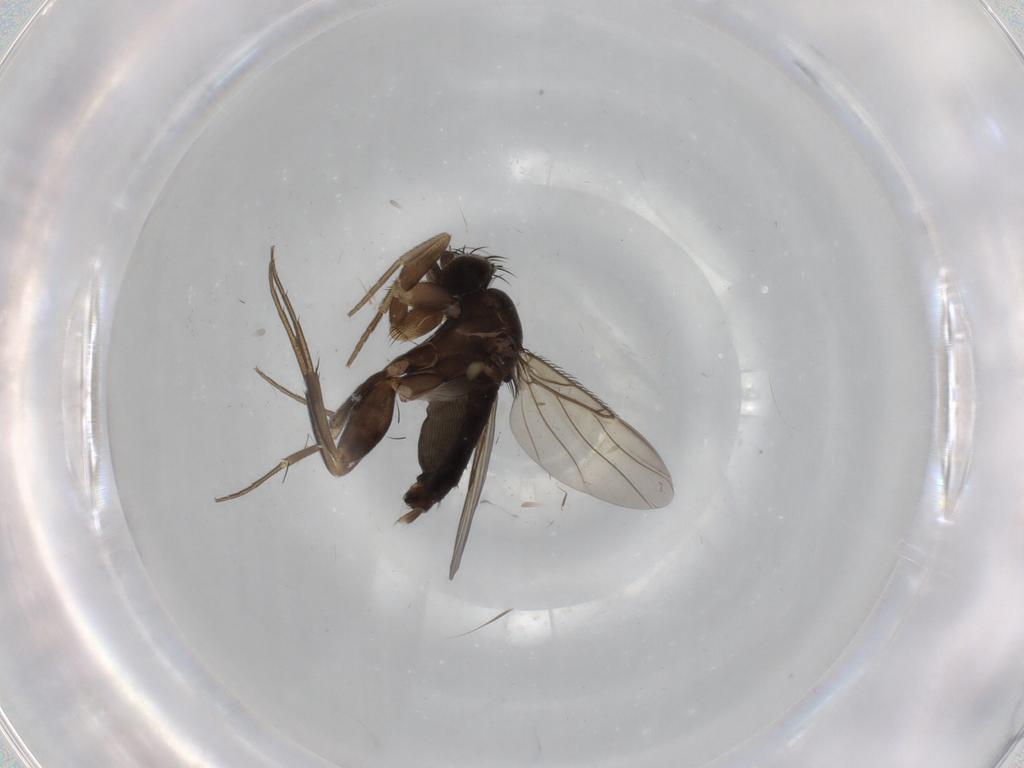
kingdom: Animalia
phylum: Arthropoda
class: Insecta
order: Diptera
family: Phoridae
